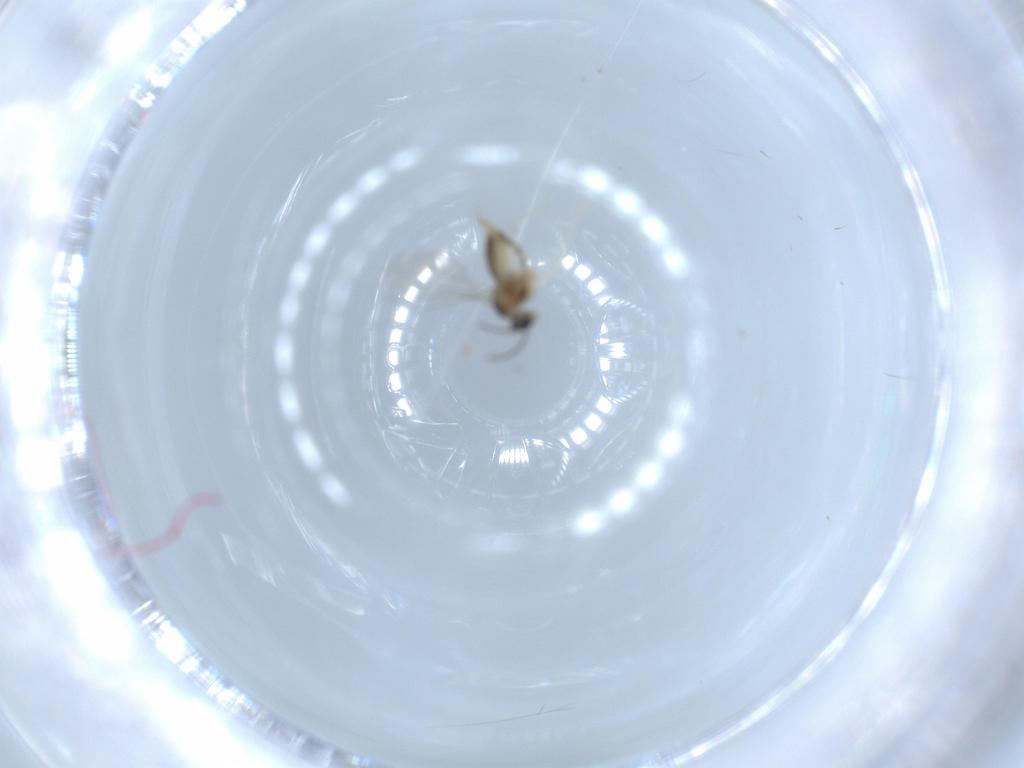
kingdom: Animalia
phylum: Arthropoda
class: Insecta
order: Diptera
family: Cecidomyiidae
